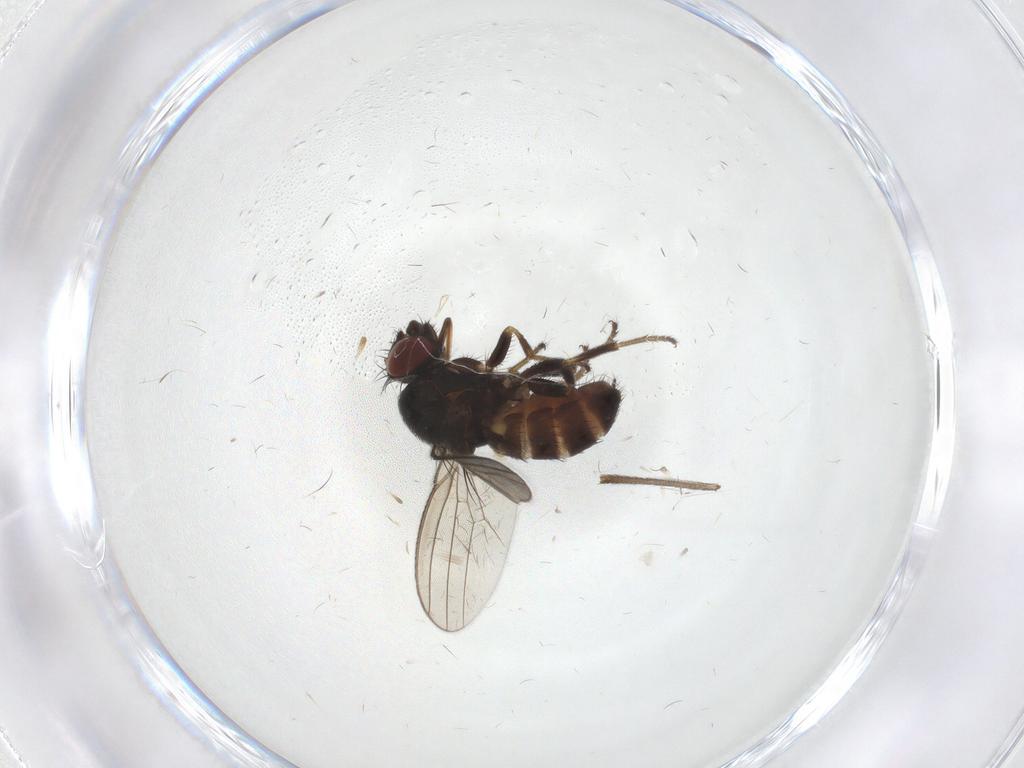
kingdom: Animalia
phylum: Arthropoda
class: Insecta
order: Diptera
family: Milichiidae
